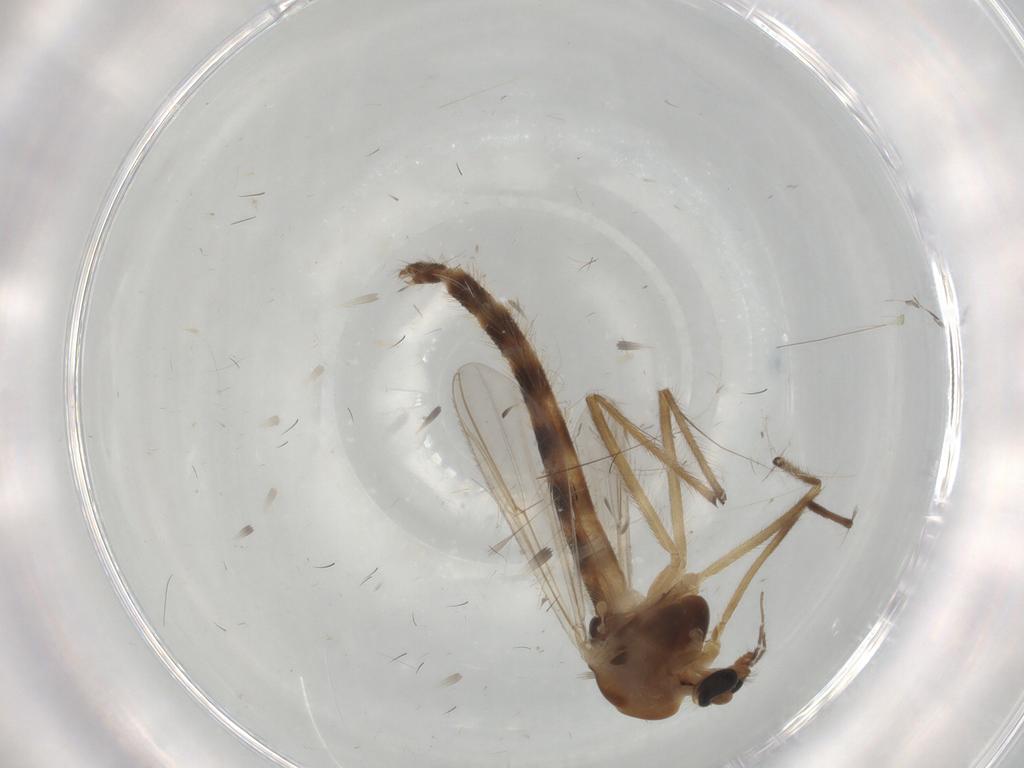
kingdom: Animalia
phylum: Arthropoda
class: Insecta
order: Diptera
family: Chironomidae
